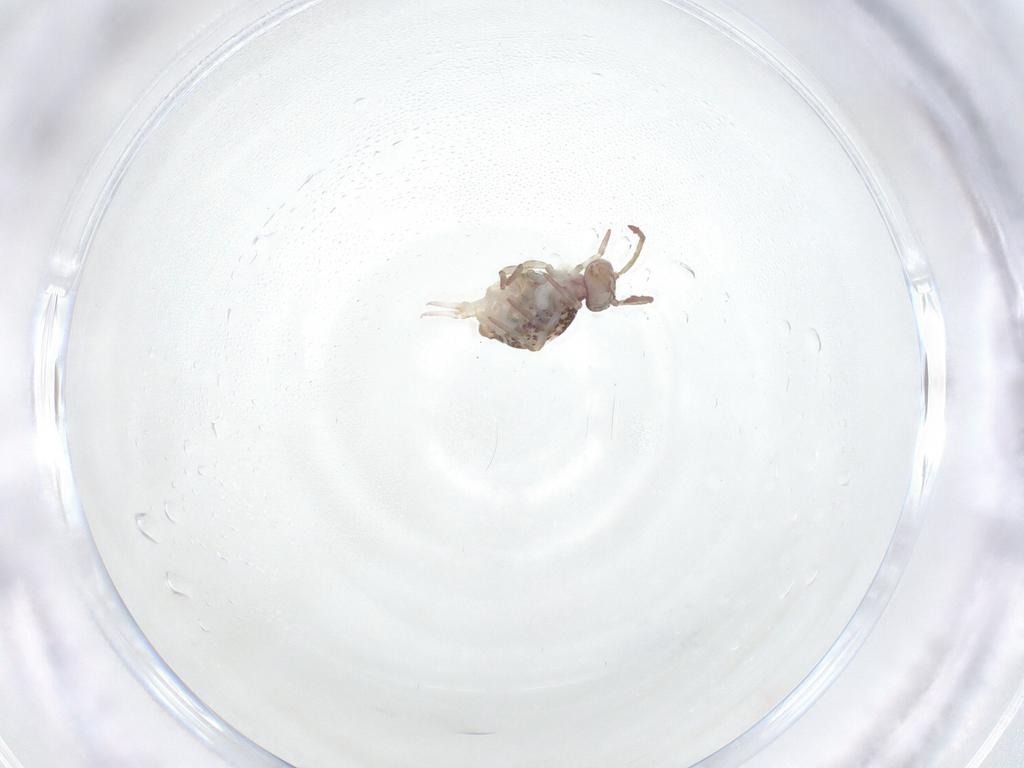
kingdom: Animalia
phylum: Arthropoda
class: Collembola
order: Symphypleona
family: Dicyrtomidae
